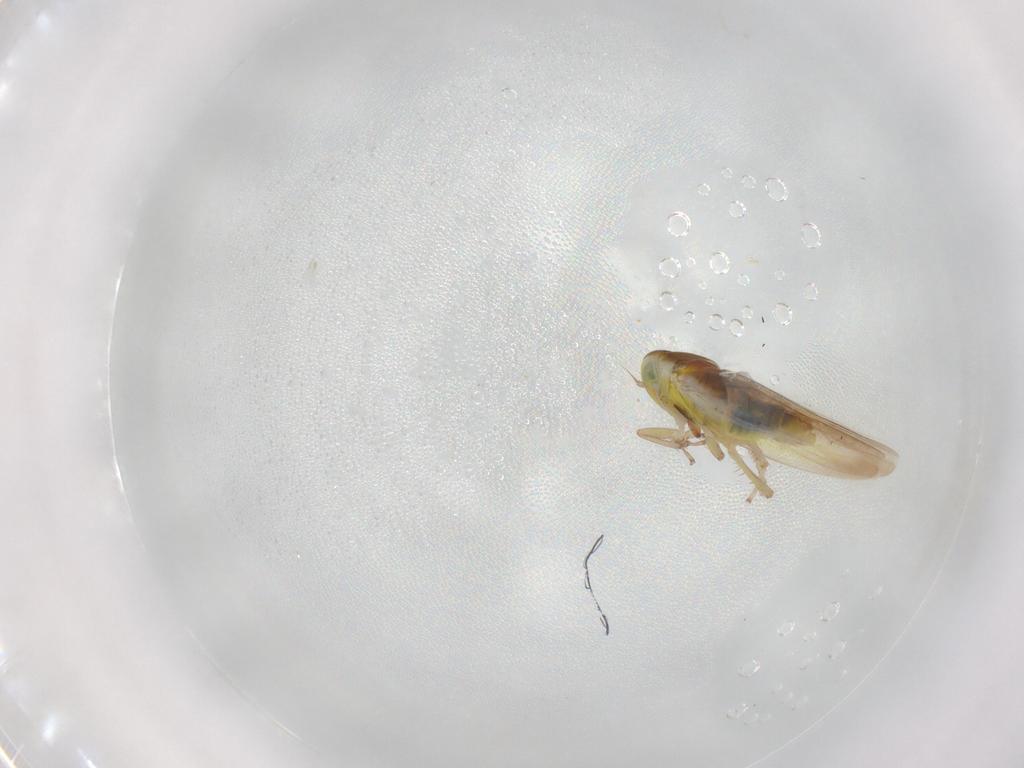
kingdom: Animalia
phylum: Arthropoda
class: Insecta
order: Hemiptera
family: Cicadellidae
